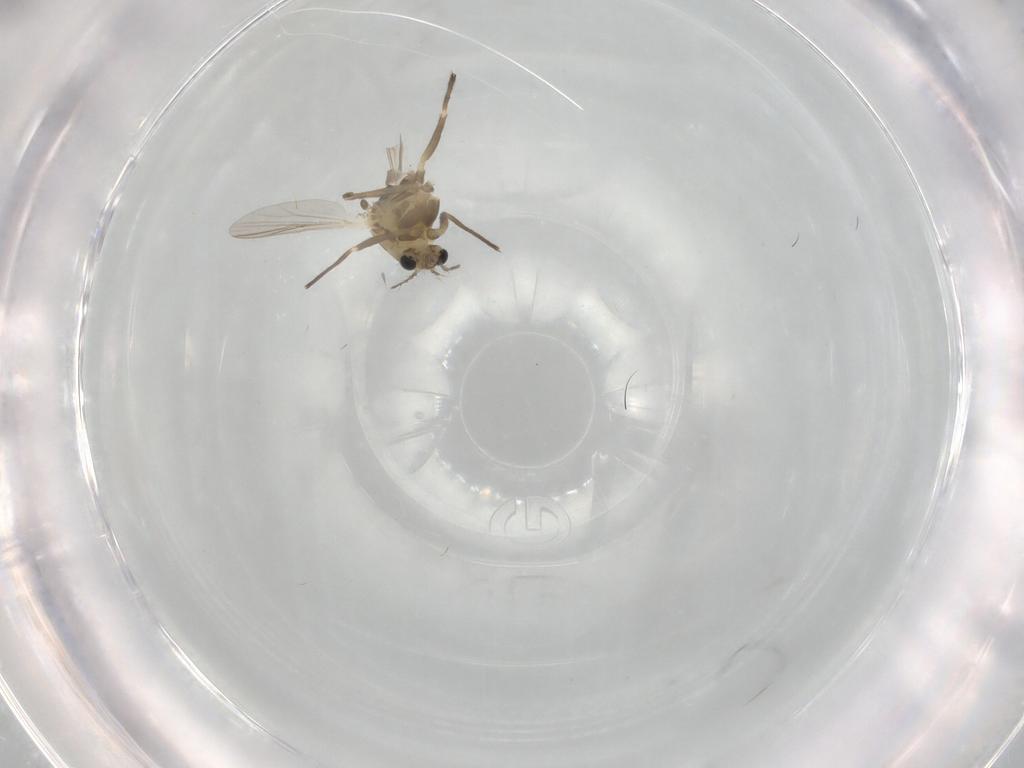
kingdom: Animalia
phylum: Arthropoda
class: Insecta
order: Diptera
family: Chironomidae
